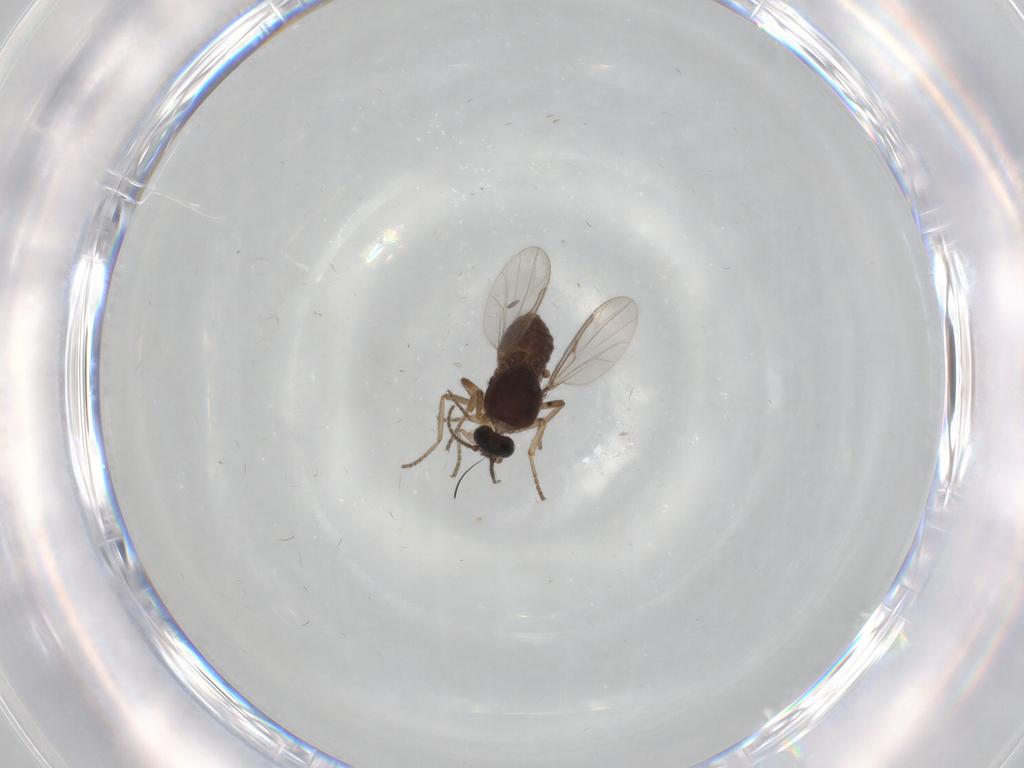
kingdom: Animalia
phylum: Arthropoda
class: Insecta
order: Diptera
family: Ceratopogonidae
